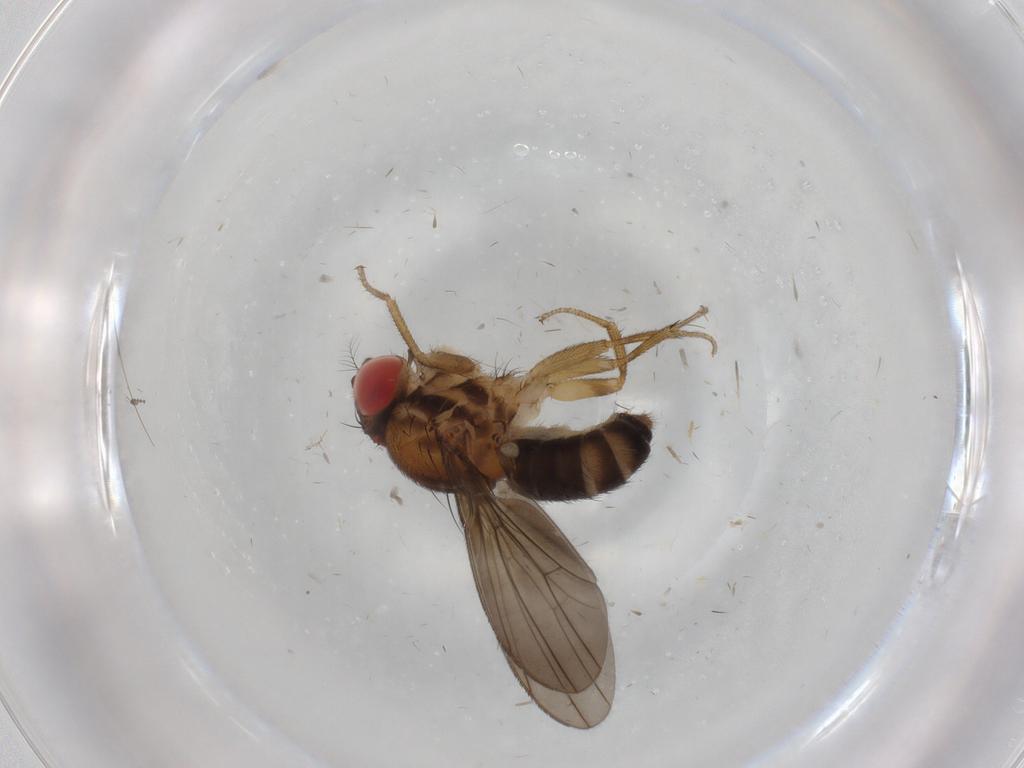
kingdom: Animalia
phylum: Arthropoda
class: Insecta
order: Diptera
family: Drosophilidae
